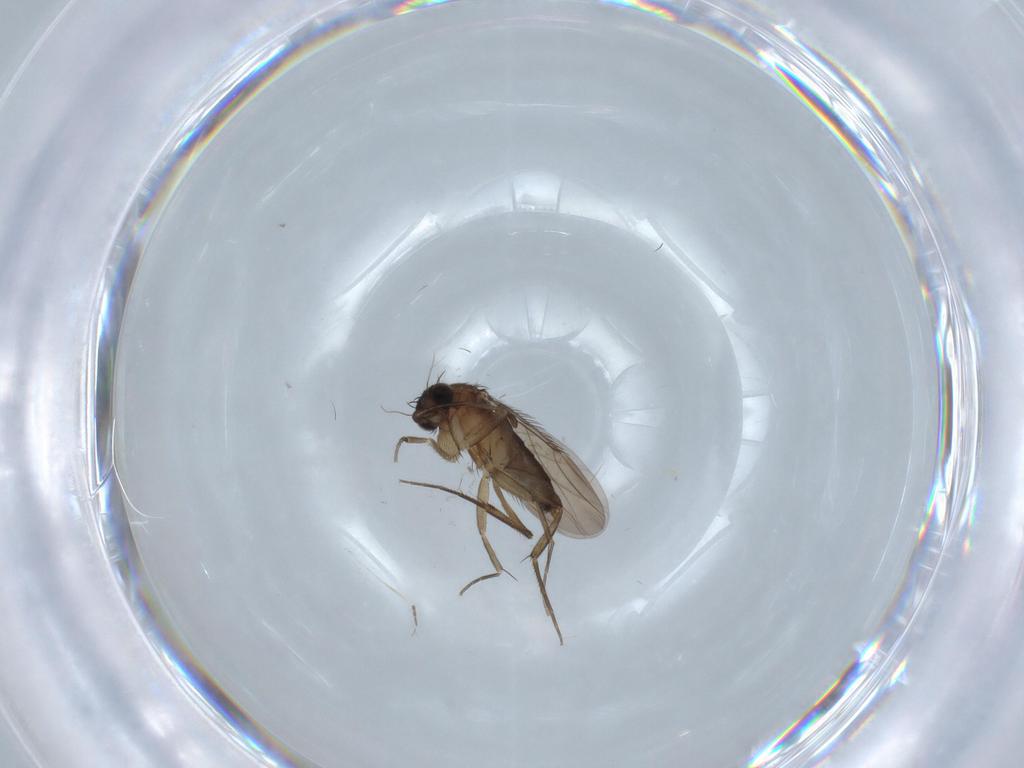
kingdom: Animalia
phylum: Arthropoda
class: Insecta
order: Diptera
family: Phoridae
